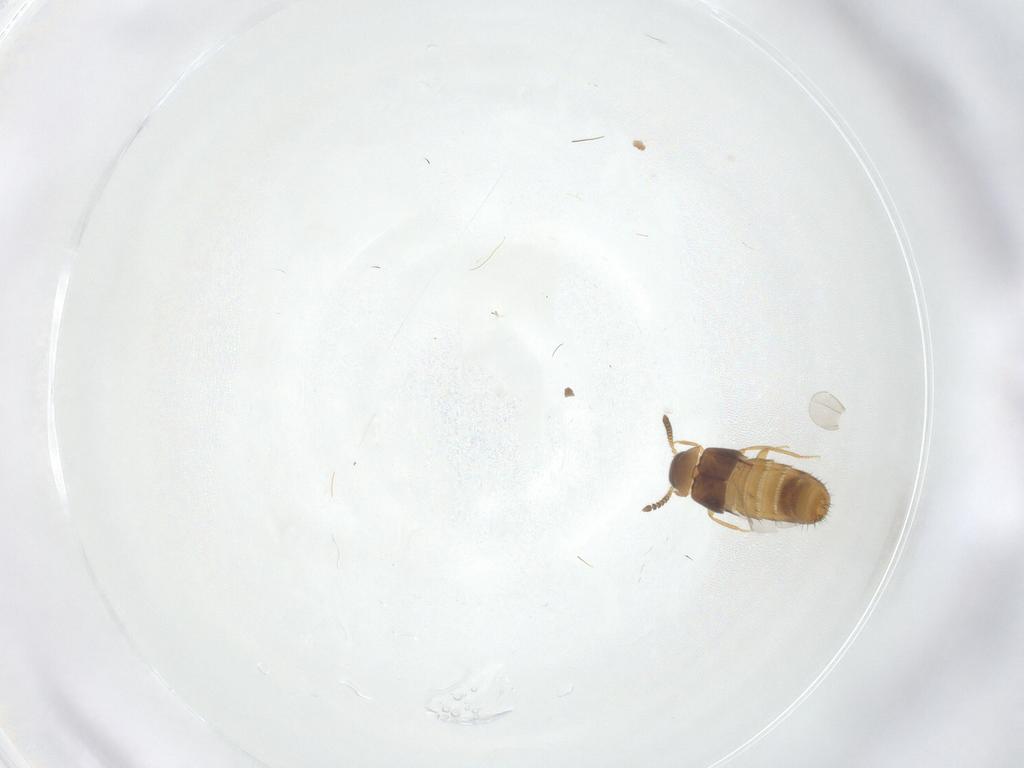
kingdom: Animalia
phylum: Arthropoda
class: Insecta
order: Coleoptera
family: Staphylinidae
